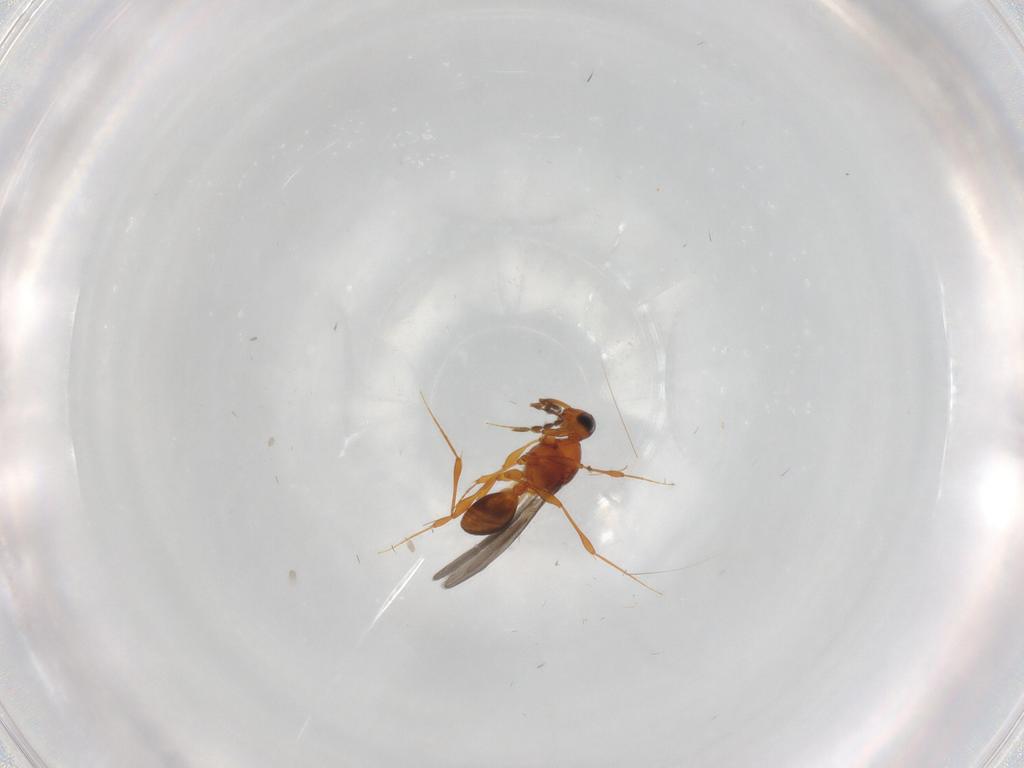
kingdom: Animalia
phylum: Arthropoda
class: Insecta
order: Hymenoptera
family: Platygastridae
